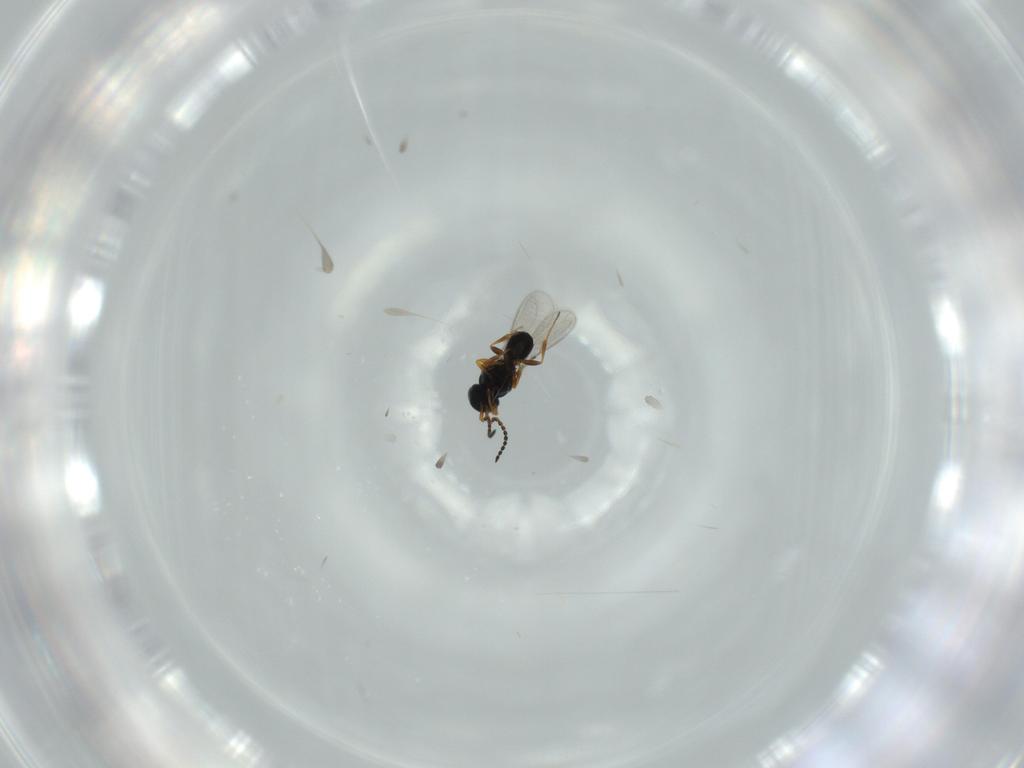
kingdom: Animalia
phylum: Arthropoda
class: Insecta
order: Hymenoptera
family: Scelionidae
